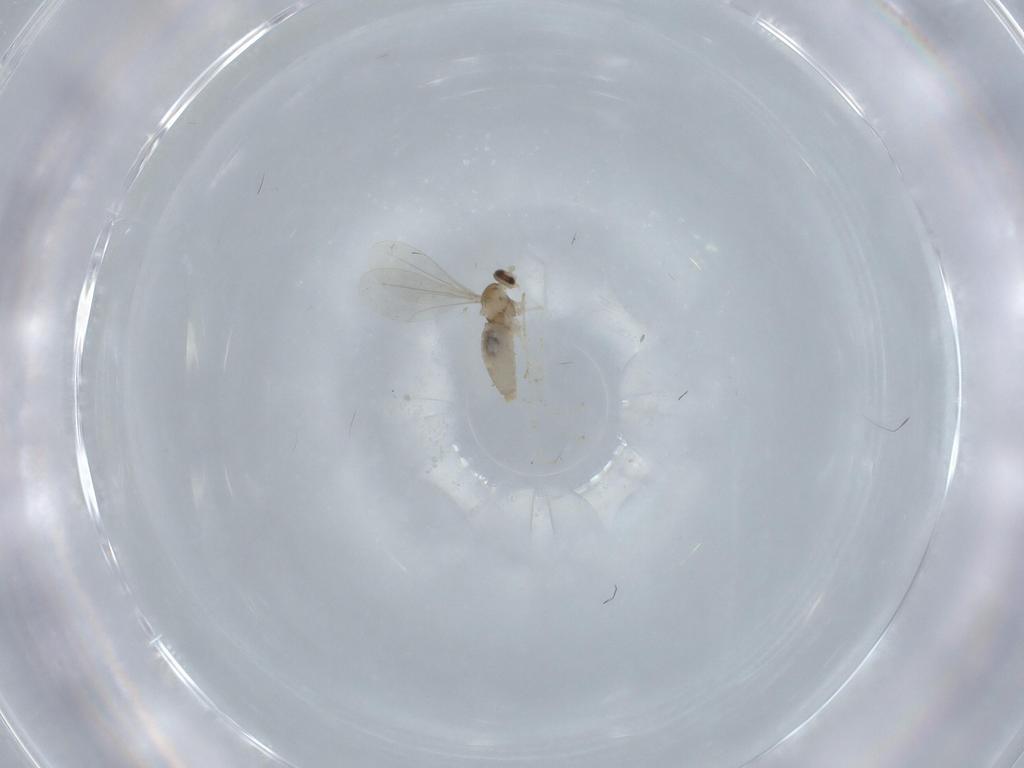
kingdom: Animalia
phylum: Arthropoda
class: Insecta
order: Diptera
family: Cecidomyiidae
